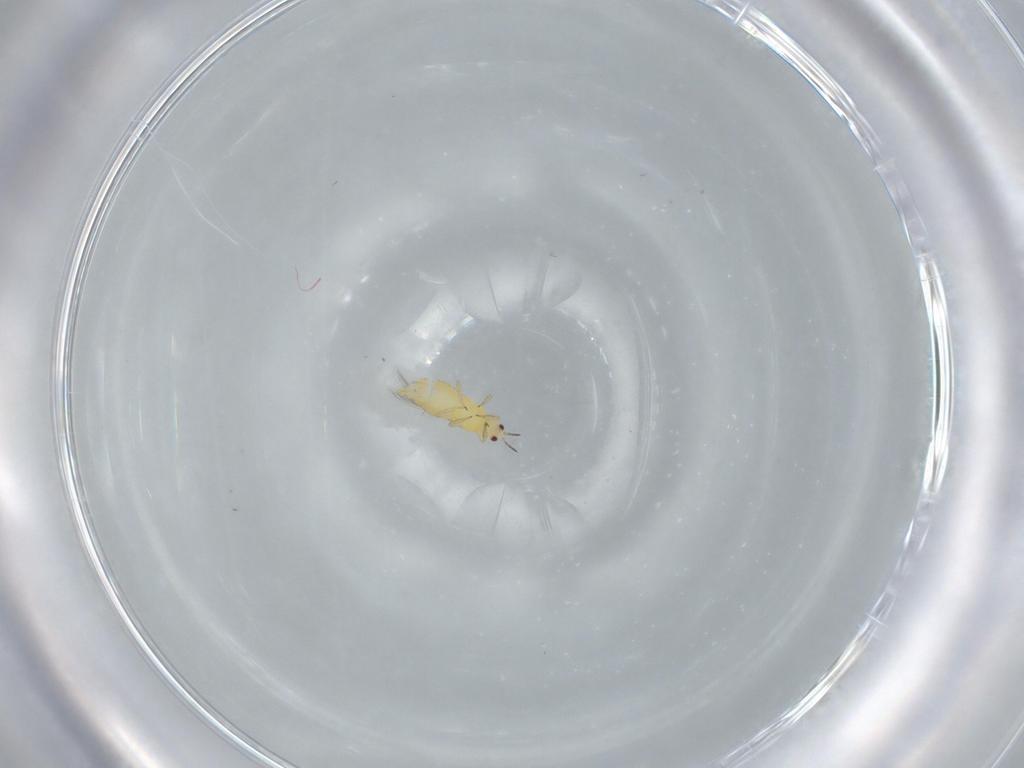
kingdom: Animalia
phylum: Arthropoda
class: Insecta
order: Thysanoptera
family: Thripidae
